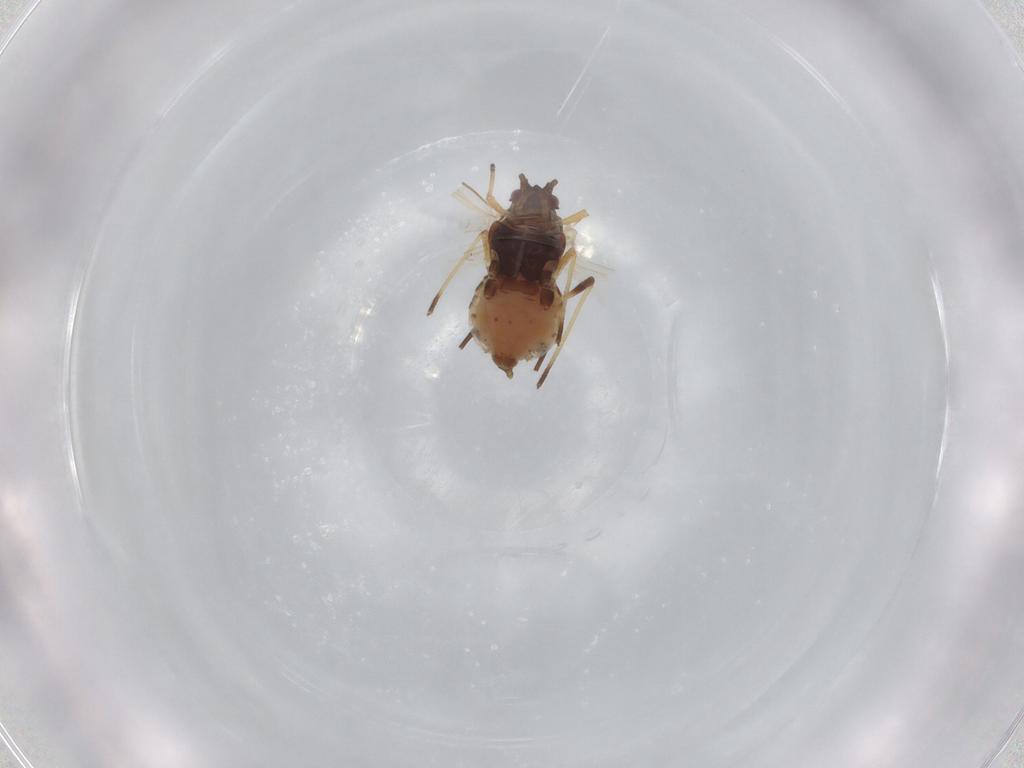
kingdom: Animalia
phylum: Arthropoda
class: Insecta
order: Hemiptera
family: Aphididae
